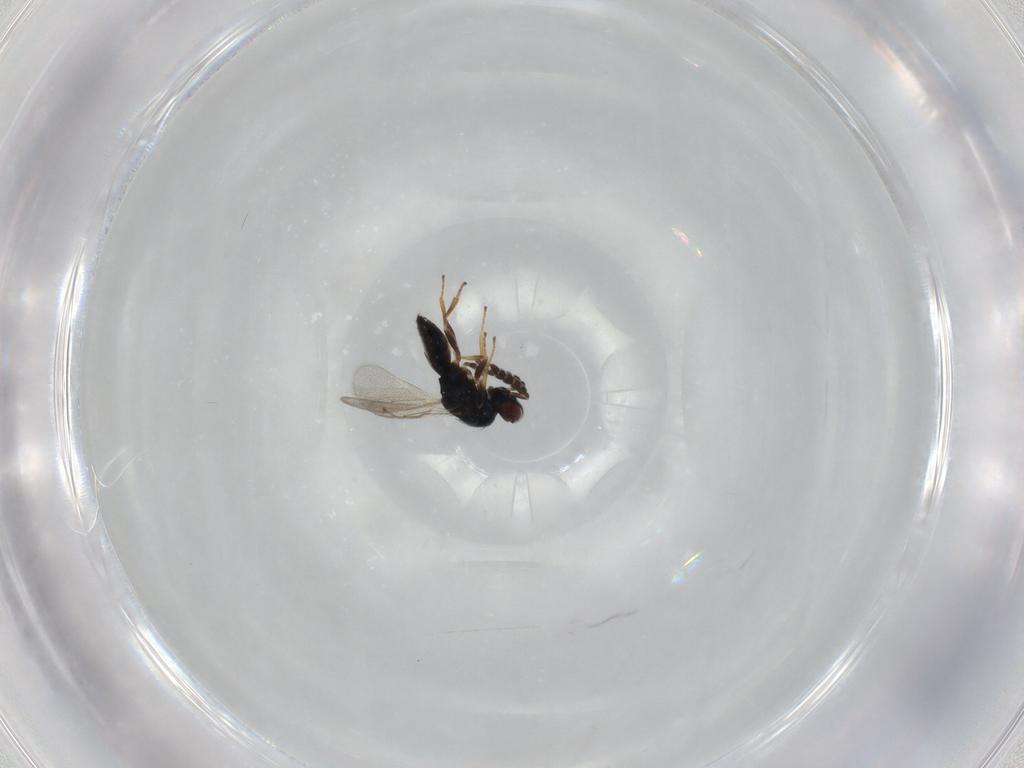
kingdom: Animalia
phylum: Arthropoda
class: Insecta
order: Hymenoptera
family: Eulophidae
